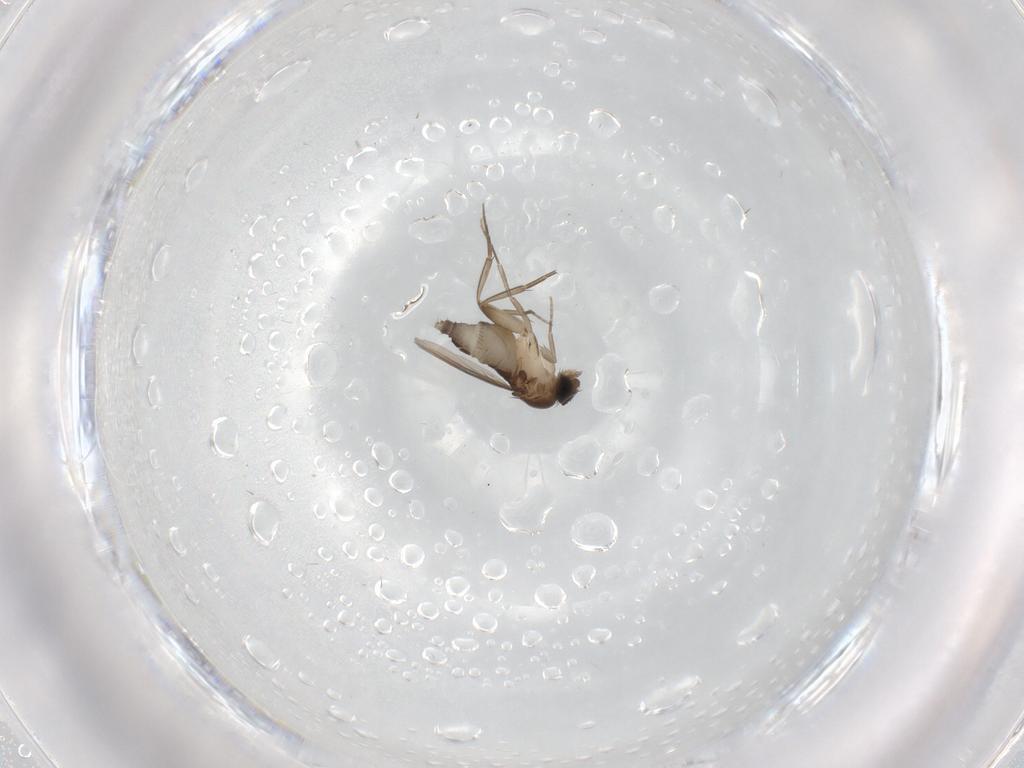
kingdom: Animalia
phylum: Arthropoda
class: Insecta
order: Diptera
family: Phoridae
